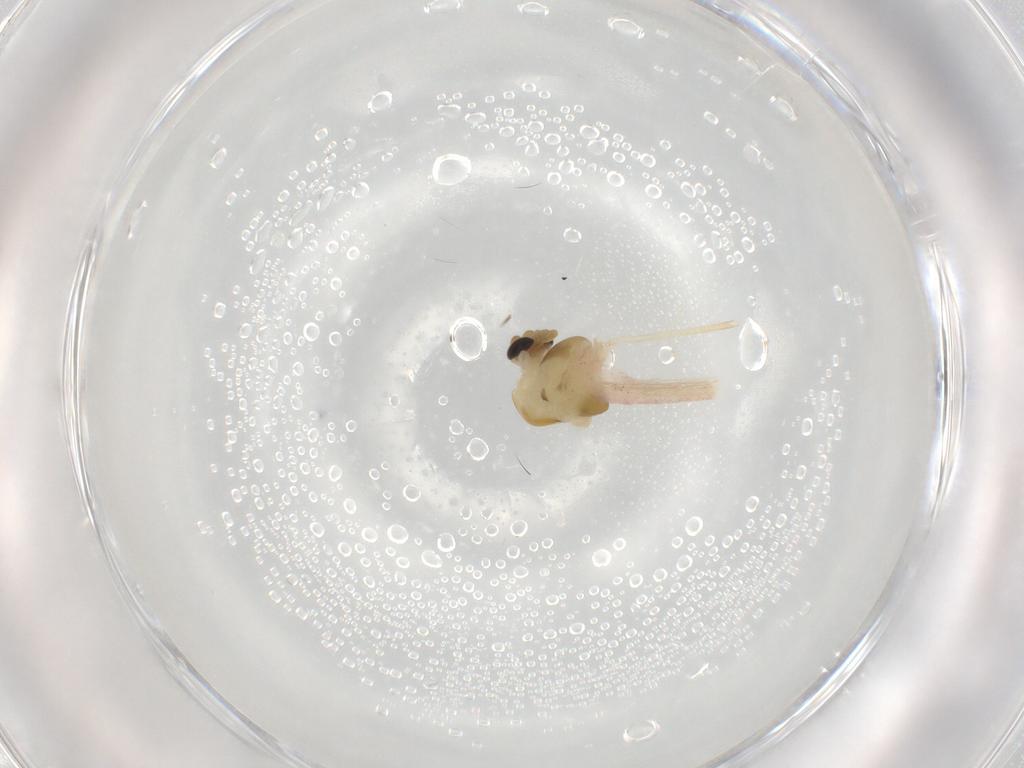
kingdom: Animalia
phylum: Arthropoda
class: Insecta
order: Diptera
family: Chironomidae
